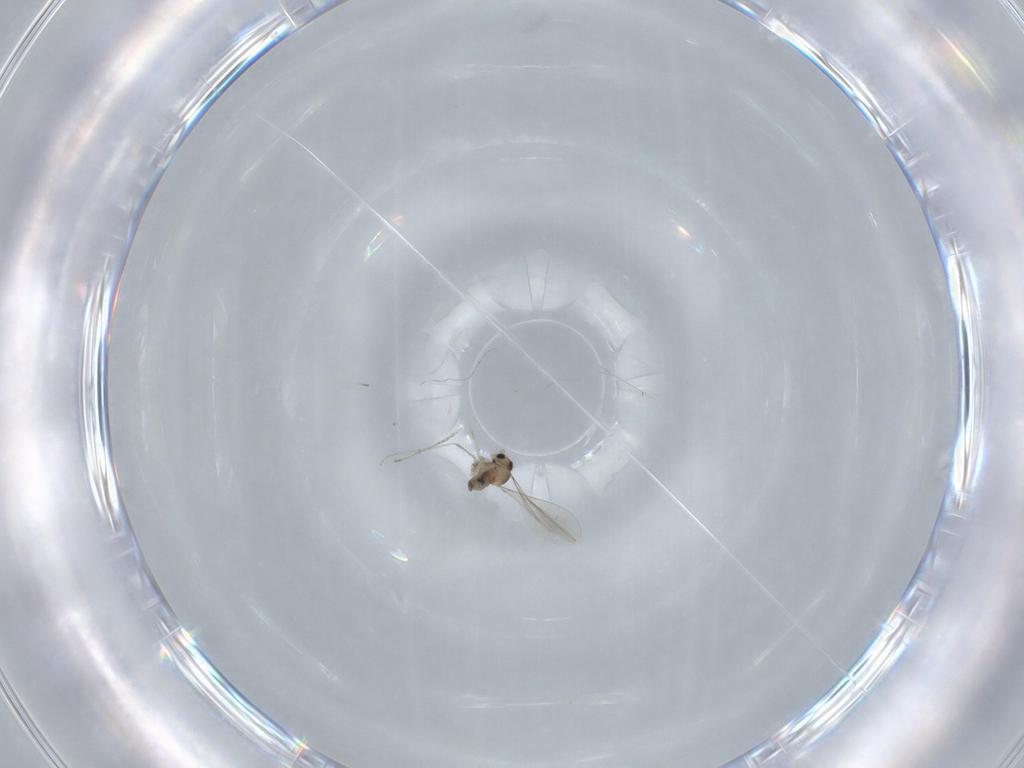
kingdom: Animalia
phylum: Arthropoda
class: Insecta
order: Diptera
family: Cecidomyiidae
